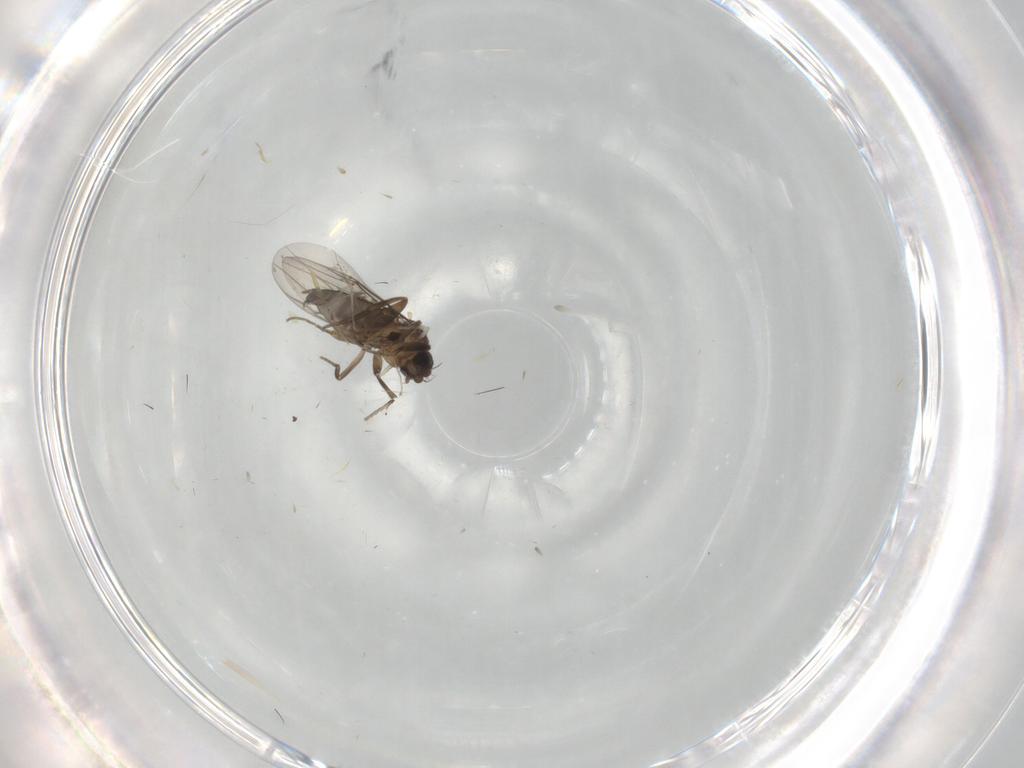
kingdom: Animalia
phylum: Arthropoda
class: Insecta
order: Diptera
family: Phoridae
